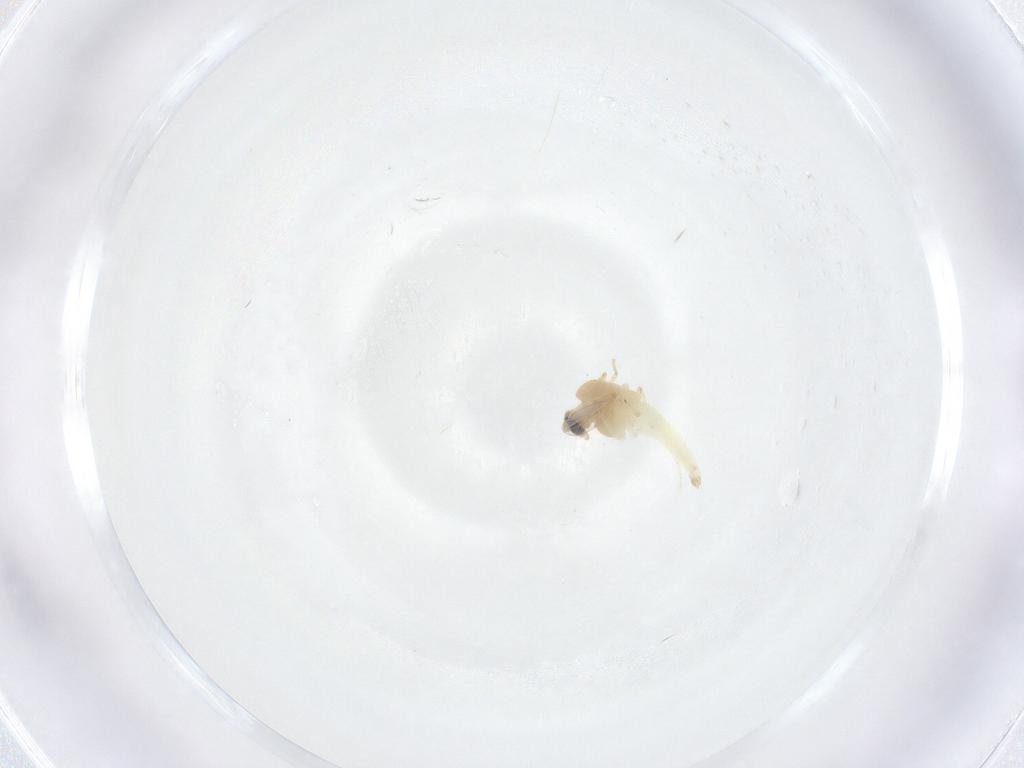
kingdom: Animalia
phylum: Arthropoda
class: Insecta
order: Diptera
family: Chironomidae
